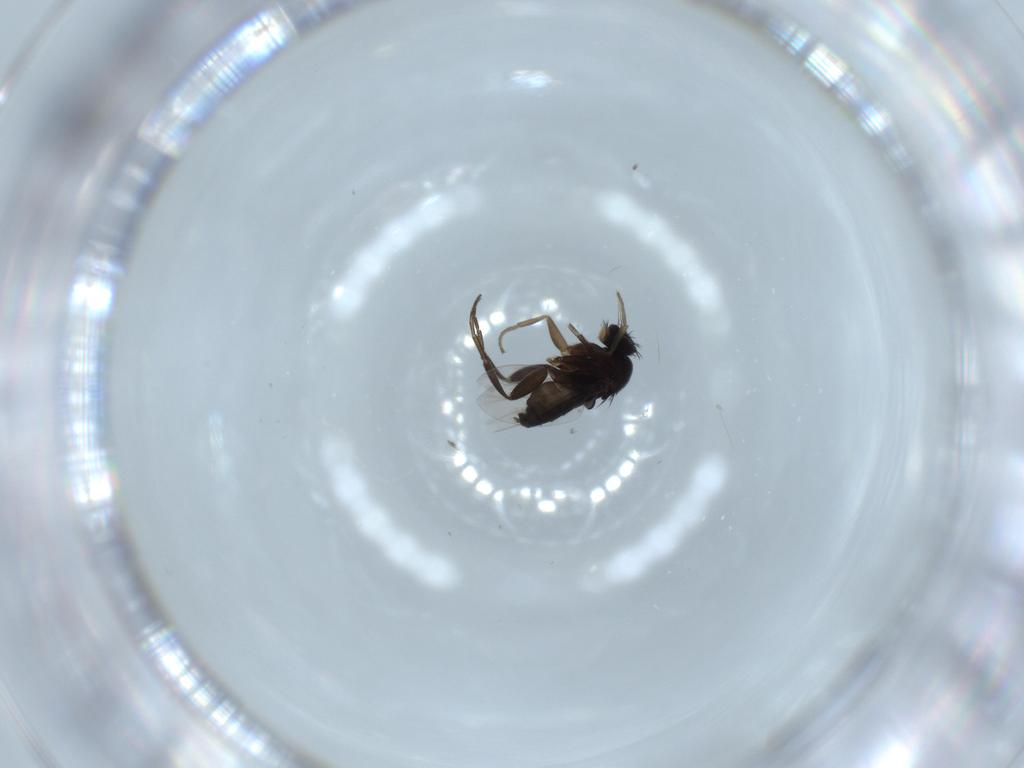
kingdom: Animalia
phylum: Arthropoda
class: Insecta
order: Diptera
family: Phoridae
